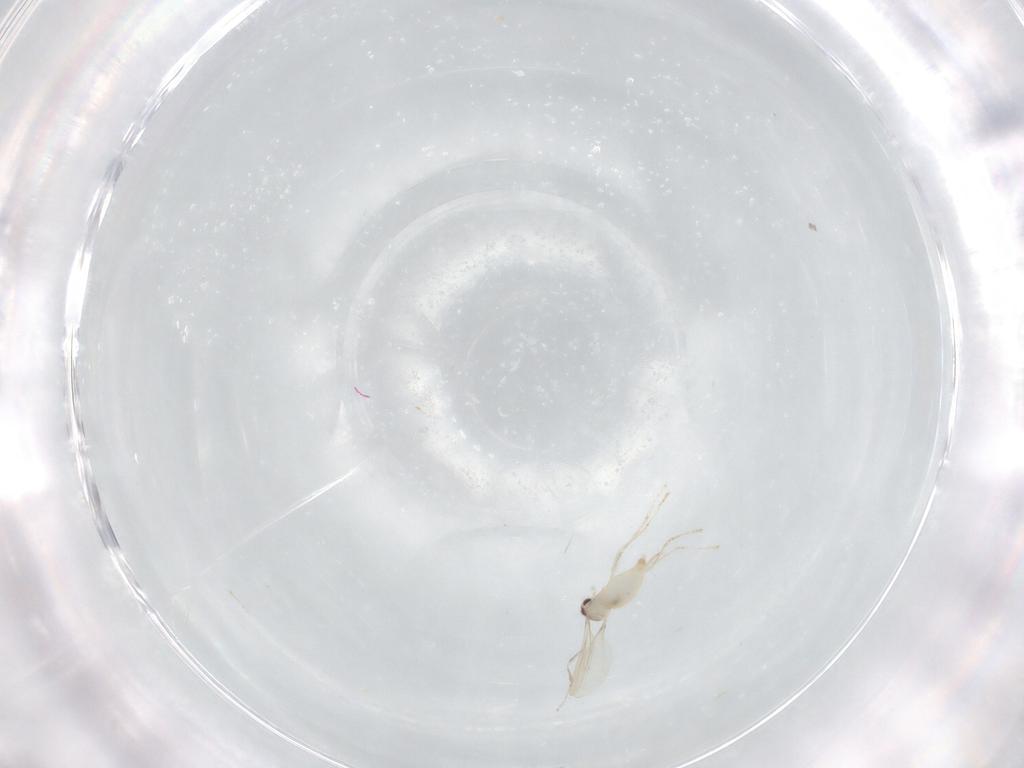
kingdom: Animalia
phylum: Arthropoda
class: Insecta
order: Diptera
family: Cecidomyiidae
